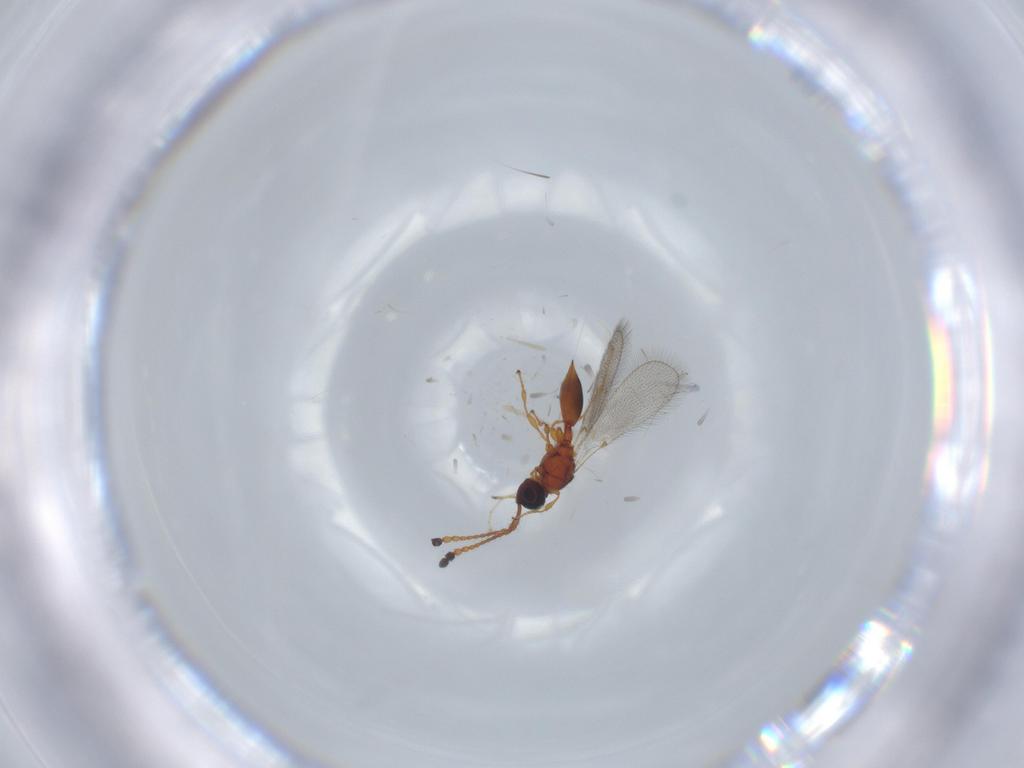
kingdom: Animalia
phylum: Arthropoda
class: Insecta
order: Hymenoptera
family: Diapriidae
